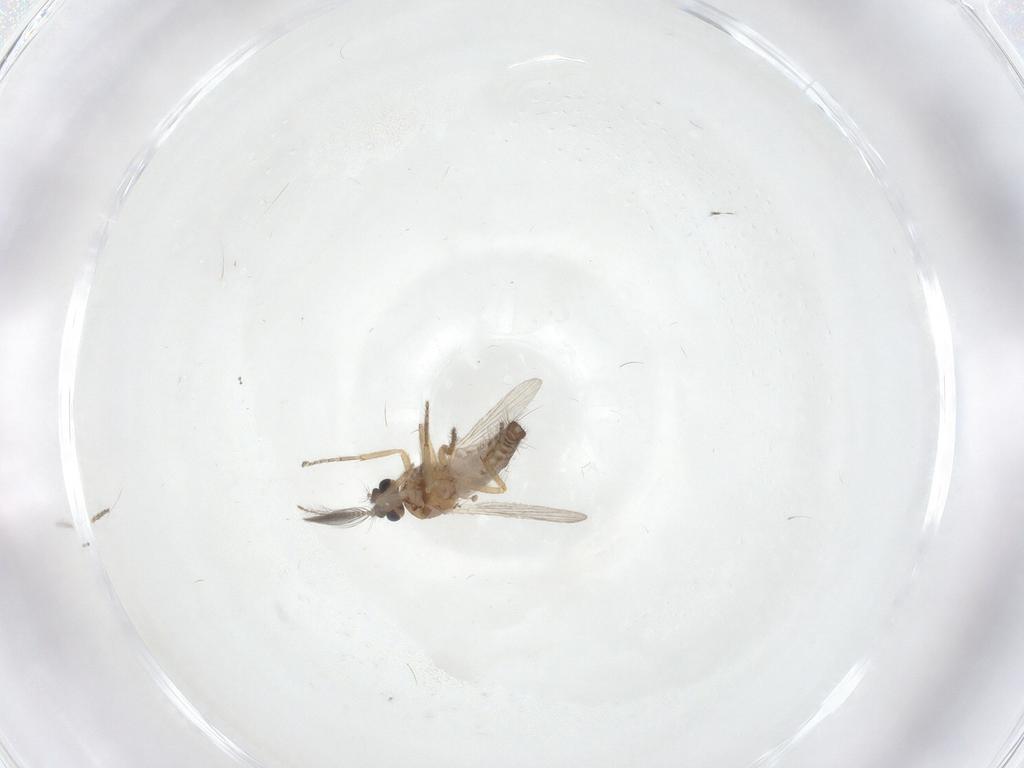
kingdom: Animalia
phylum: Arthropoda
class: Insecta
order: Diptera
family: Ceratopogonidae
